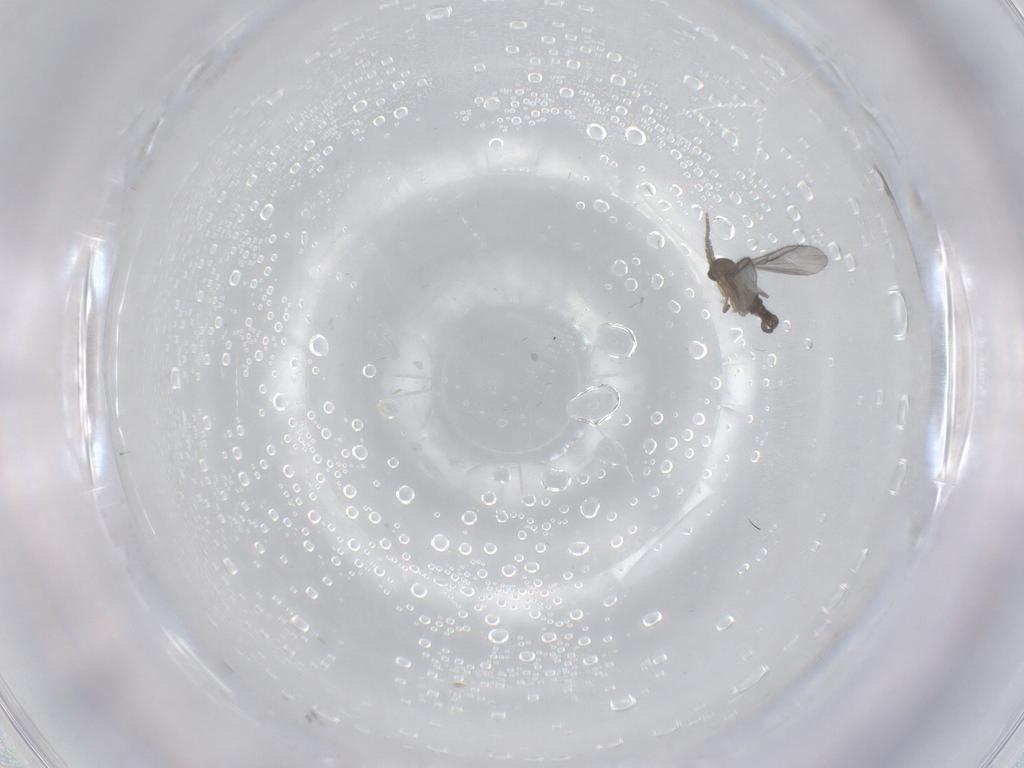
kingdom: Animalia
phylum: Arthropoda
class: Insecta
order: Diptera
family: Sciaridae
